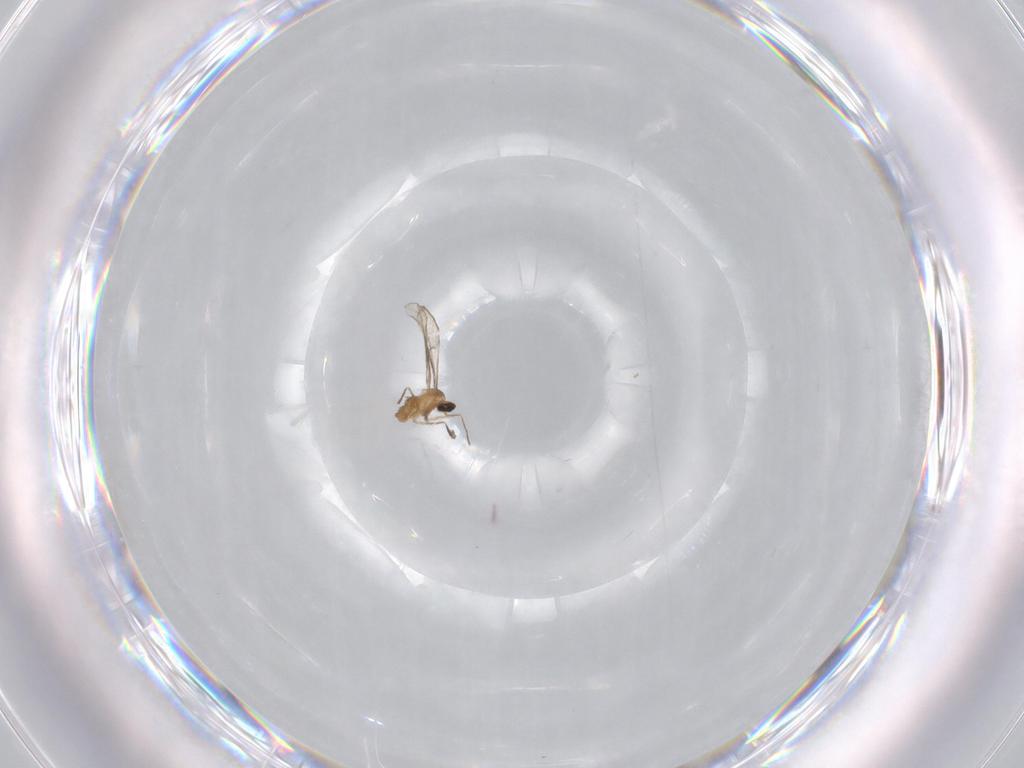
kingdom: Animalia
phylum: Arthropoda
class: Insecta
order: Diptera
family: Cecidomyiidae
